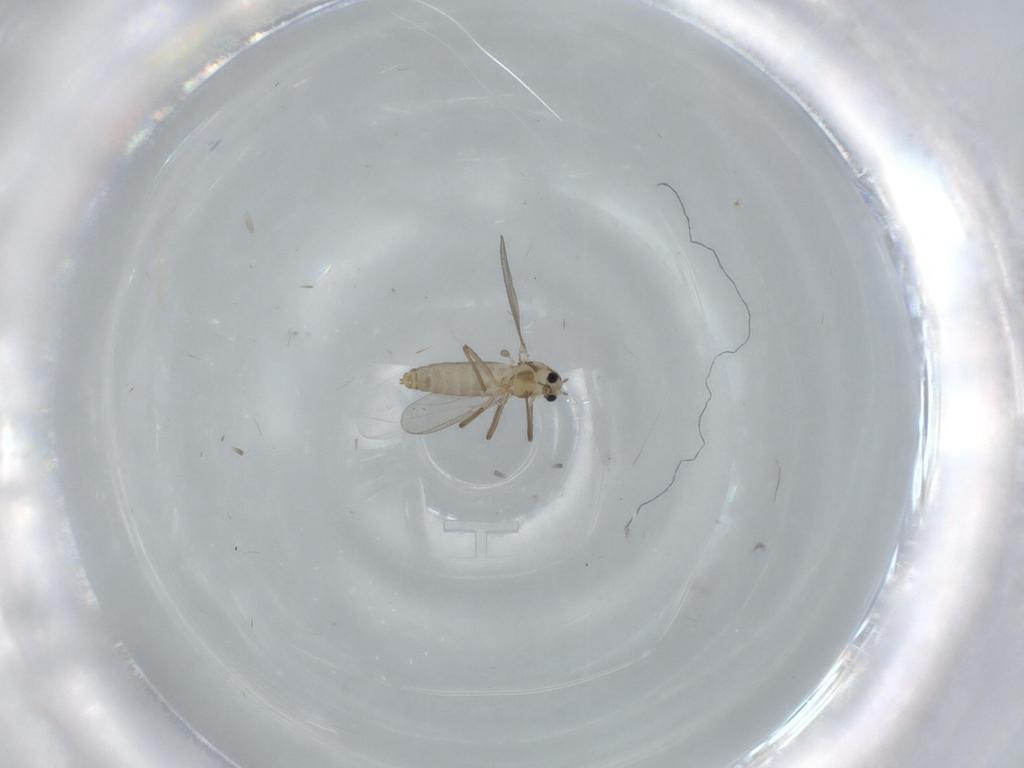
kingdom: Animalia
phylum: Arthropoda
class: Insecta
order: Diptera
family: Chironomidae
